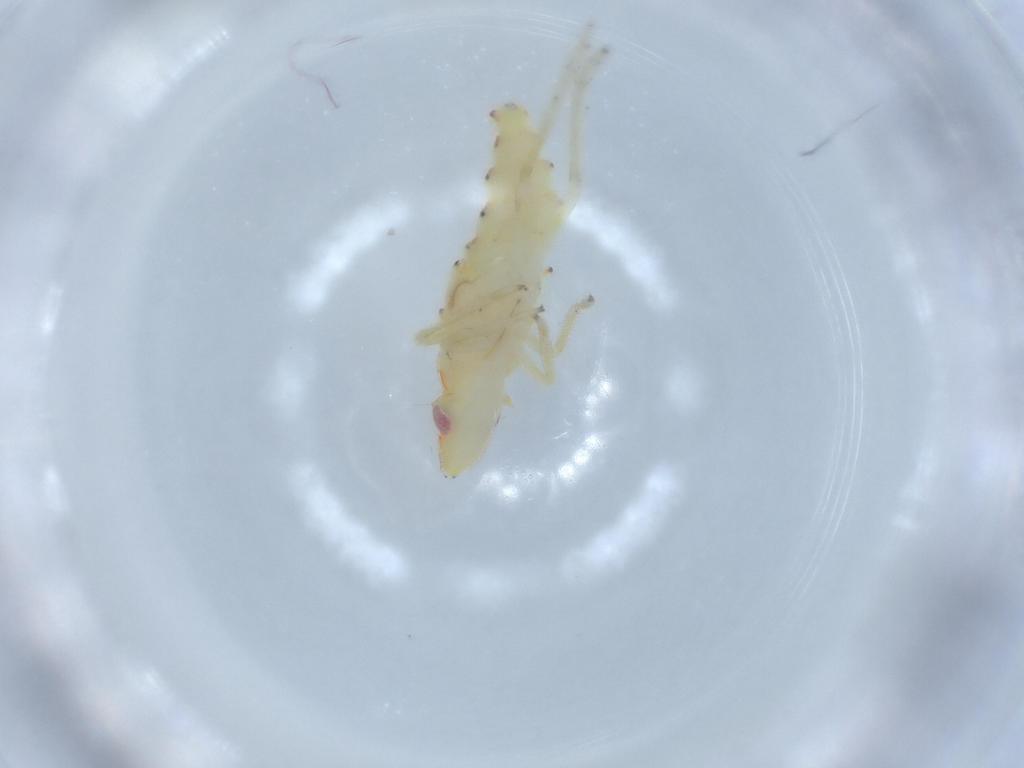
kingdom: Animalia
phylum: Arthropoda
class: Insecta
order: Hemiptera
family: Tropiduchidae
